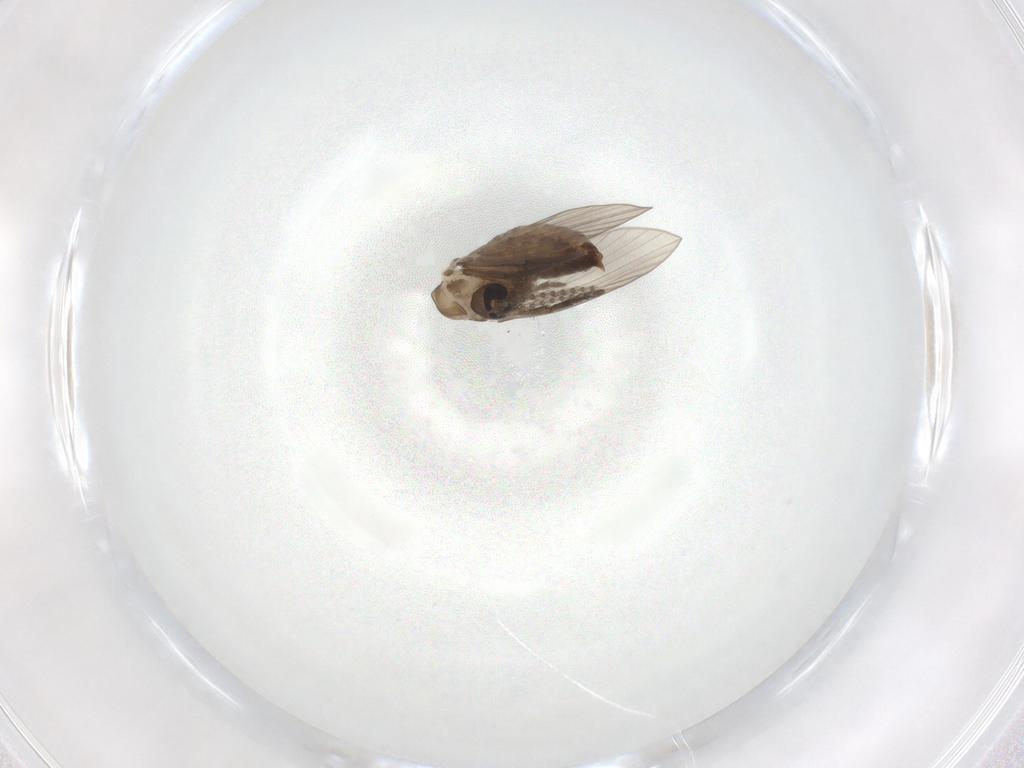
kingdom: Animalia
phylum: Arthropoda
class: Insecta
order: Diptera
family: Psychodidae
